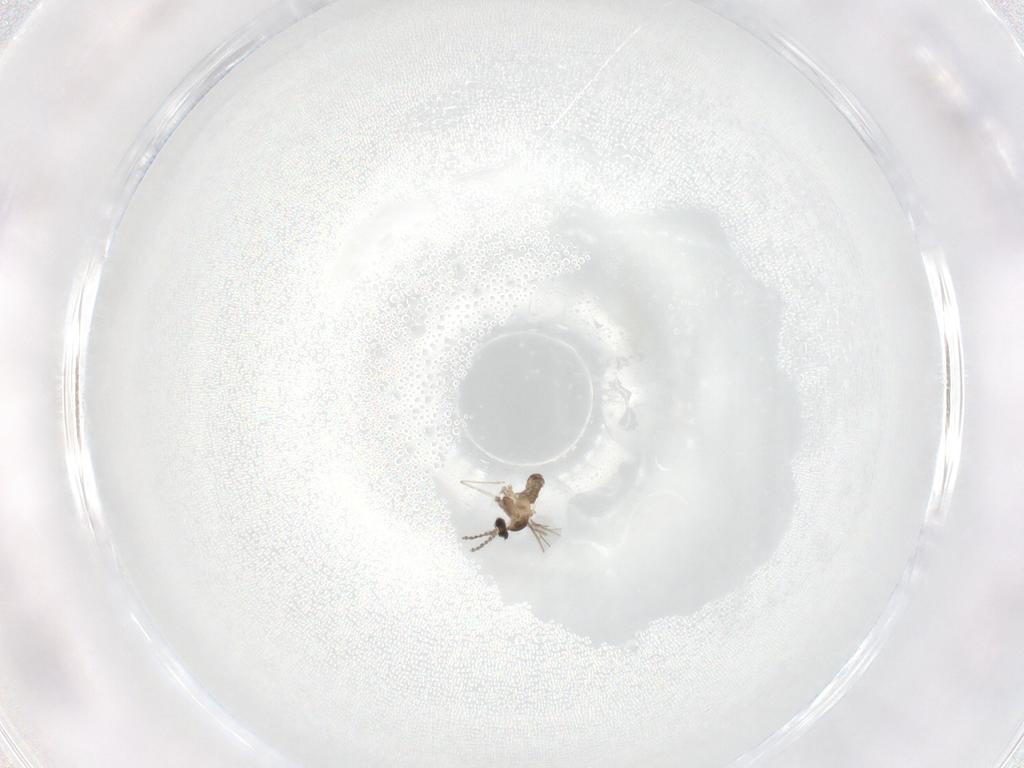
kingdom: Animalia
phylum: Arthropoda
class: Insecta
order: Diptera
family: Cecidomyiidae
